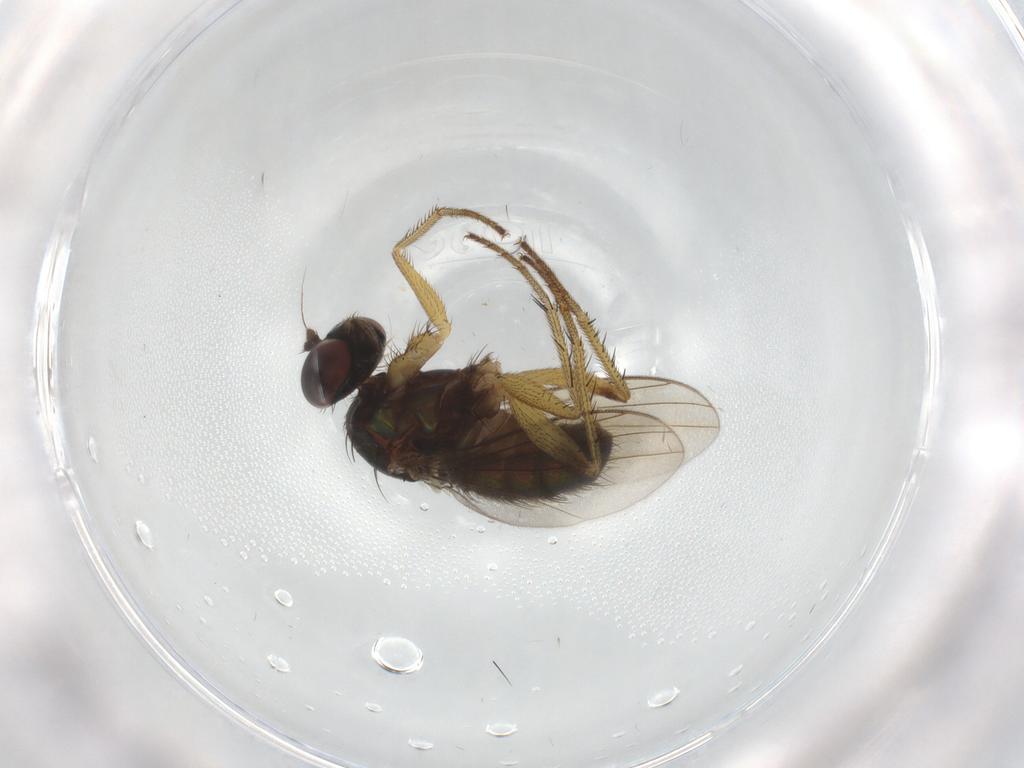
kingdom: Animalia
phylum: Arthropoda
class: Insecta
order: Diptera
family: Dolichopodidae
